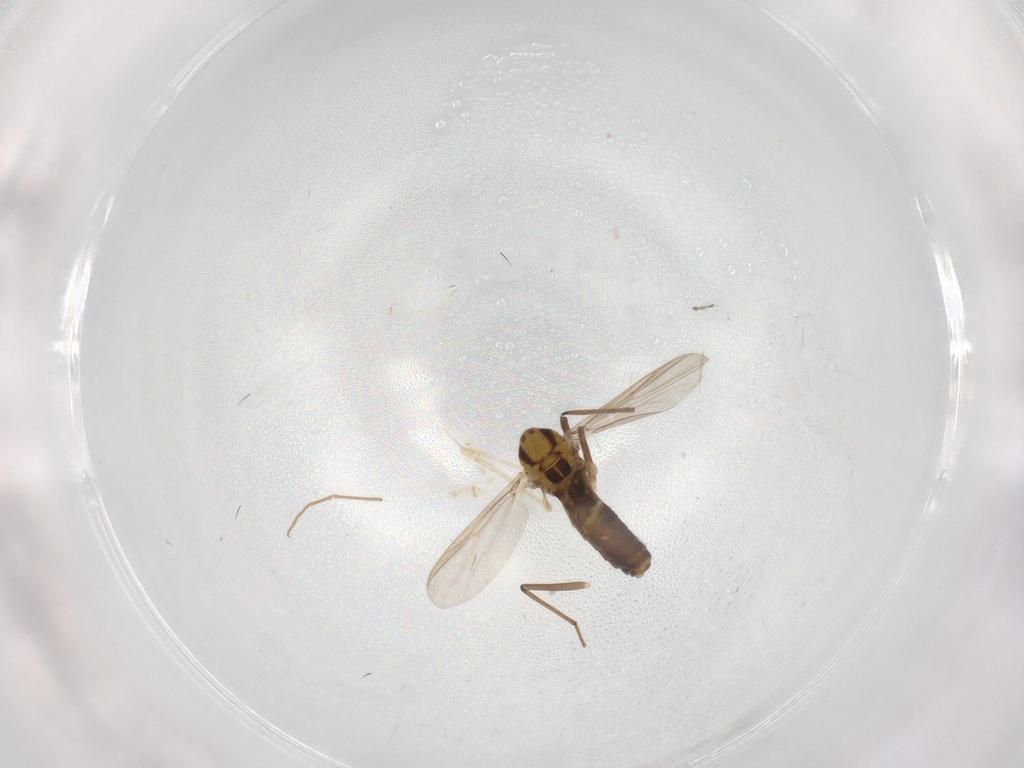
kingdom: Animalia
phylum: Arthropoda
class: Insecta
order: Diptera
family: Chironomidae
